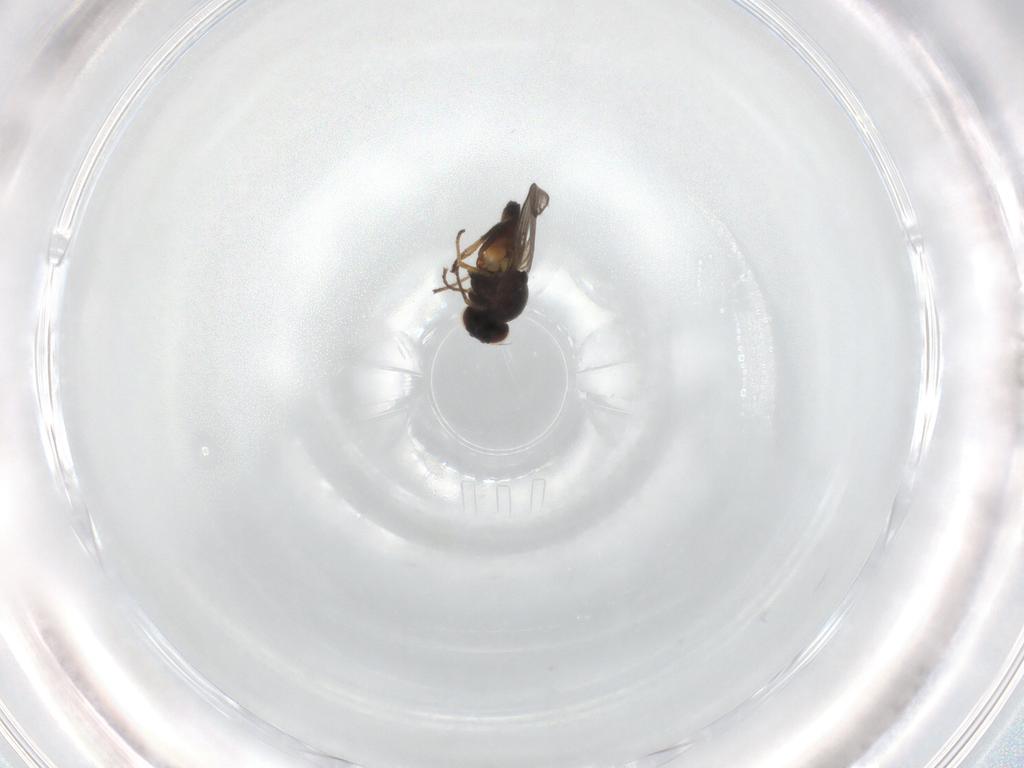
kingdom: Animalia
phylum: Arthropoda
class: Insecta
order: Diptera
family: Chloropidae
